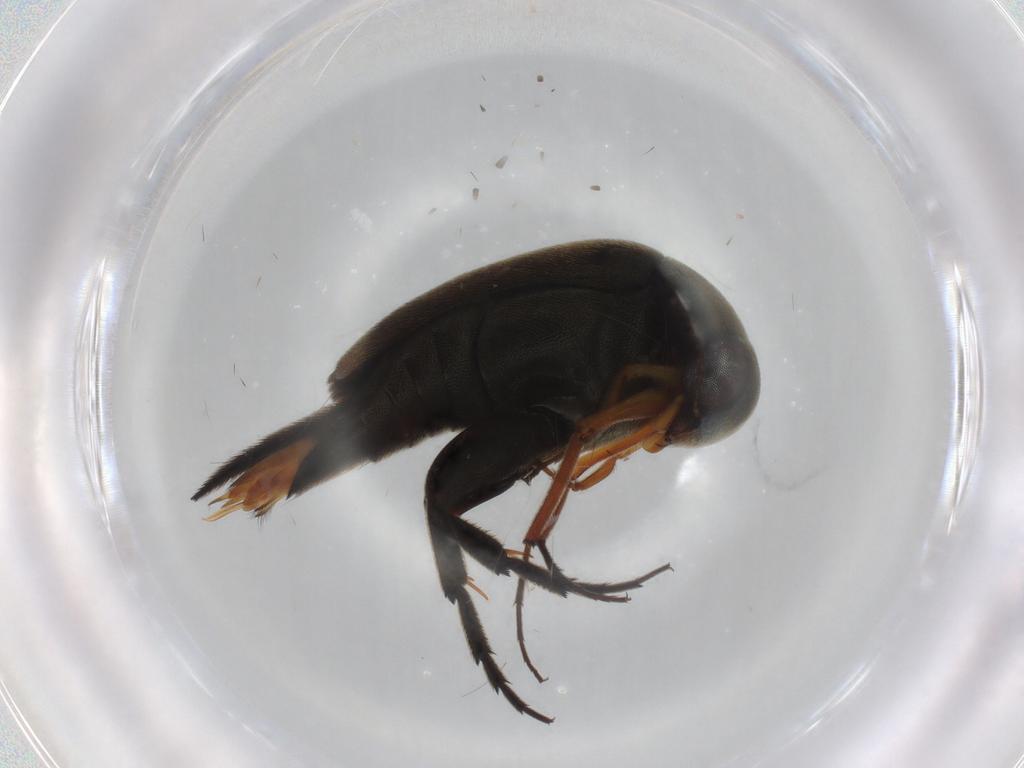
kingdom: Animalia
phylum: Arthropoda
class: Insecta
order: Coleoptera
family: Mordellidae
